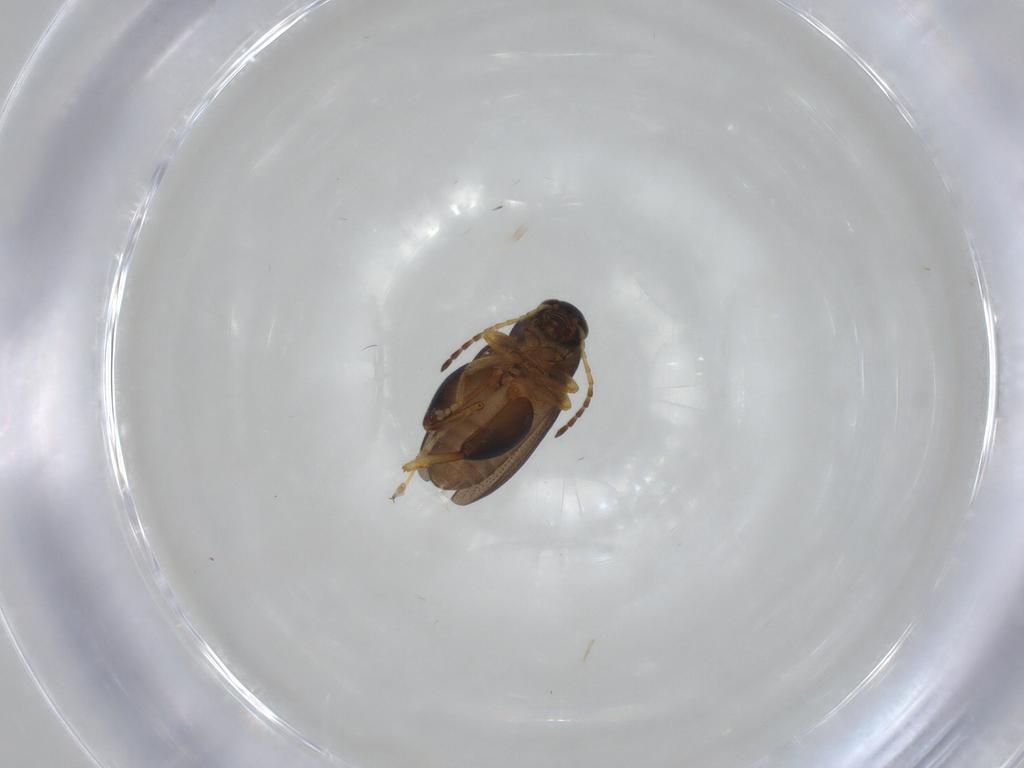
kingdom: Animalia
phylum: Arthropoda
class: Insecta
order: Coleoptera
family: Chrysomelidae
